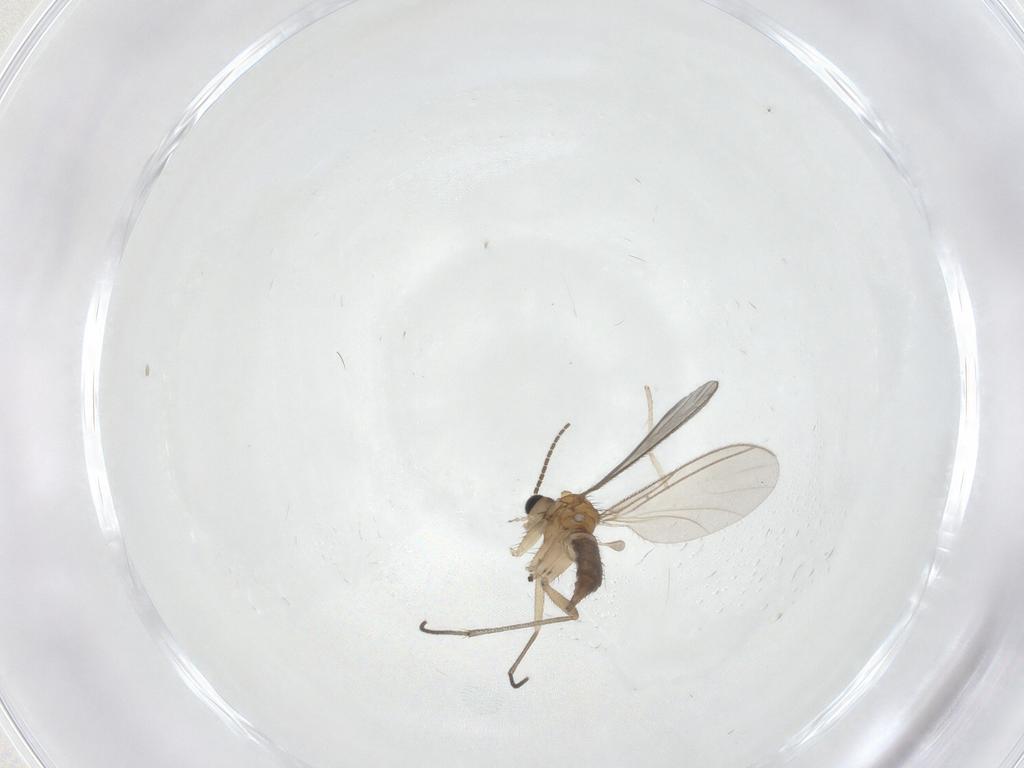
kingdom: Animalia
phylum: Arthropoda
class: Insecta
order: Diptera
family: Sciaridae
